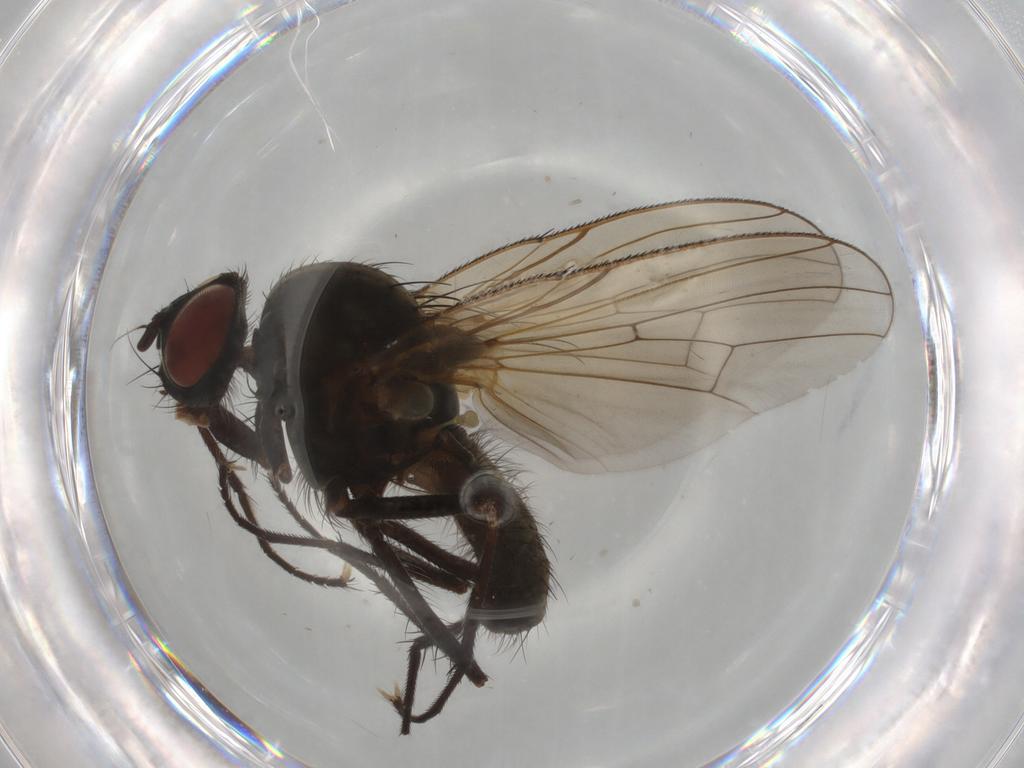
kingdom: Animalia
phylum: Arthropoda
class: Insecta
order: Diptera
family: Anthomyiidae
